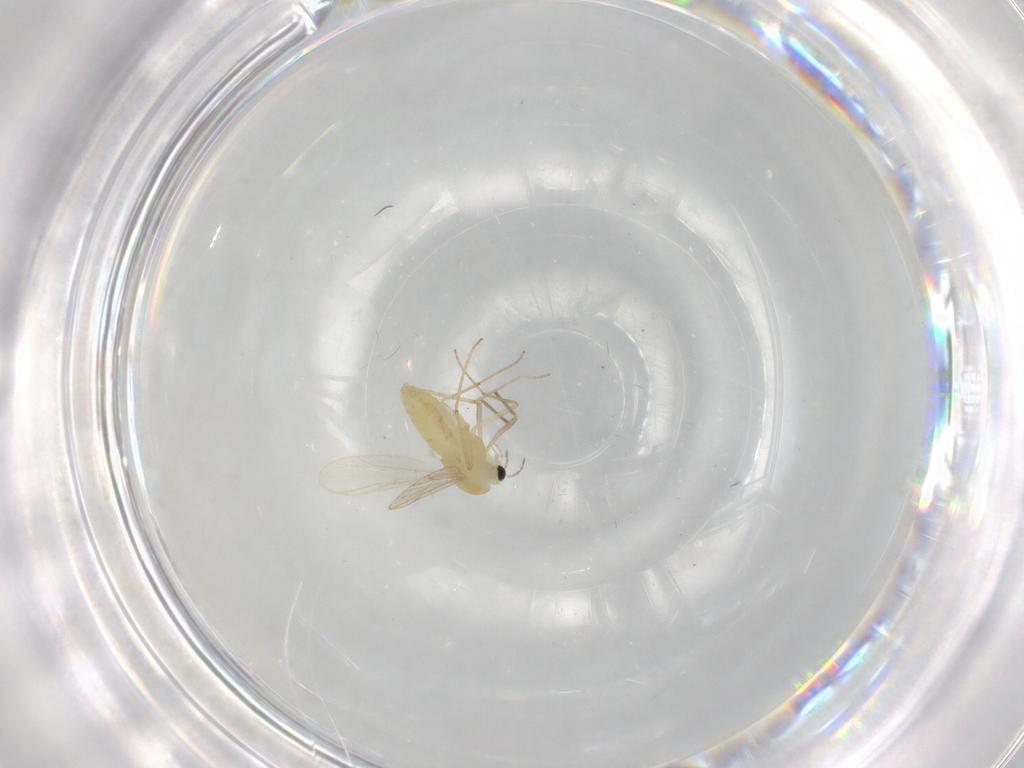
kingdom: Animalia
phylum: Arthropoda
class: Insecta
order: Diptera
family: Chironomidae
